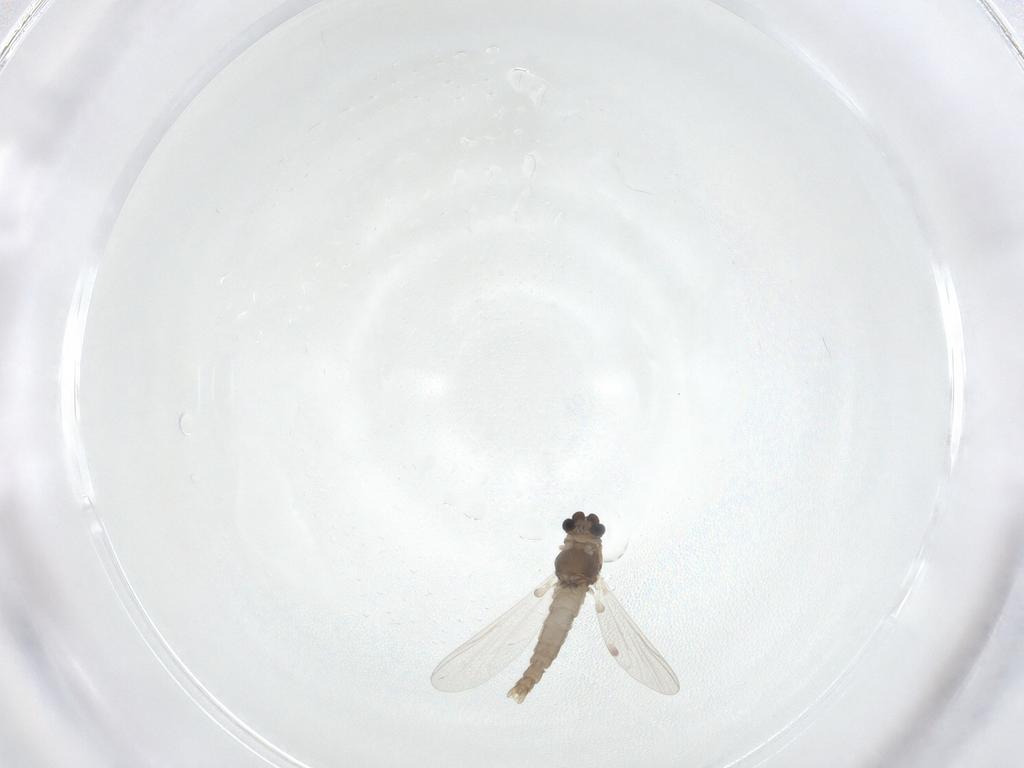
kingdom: Animalia
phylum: Arthropoda
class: Insecta
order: Diptera
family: Chironomidae
